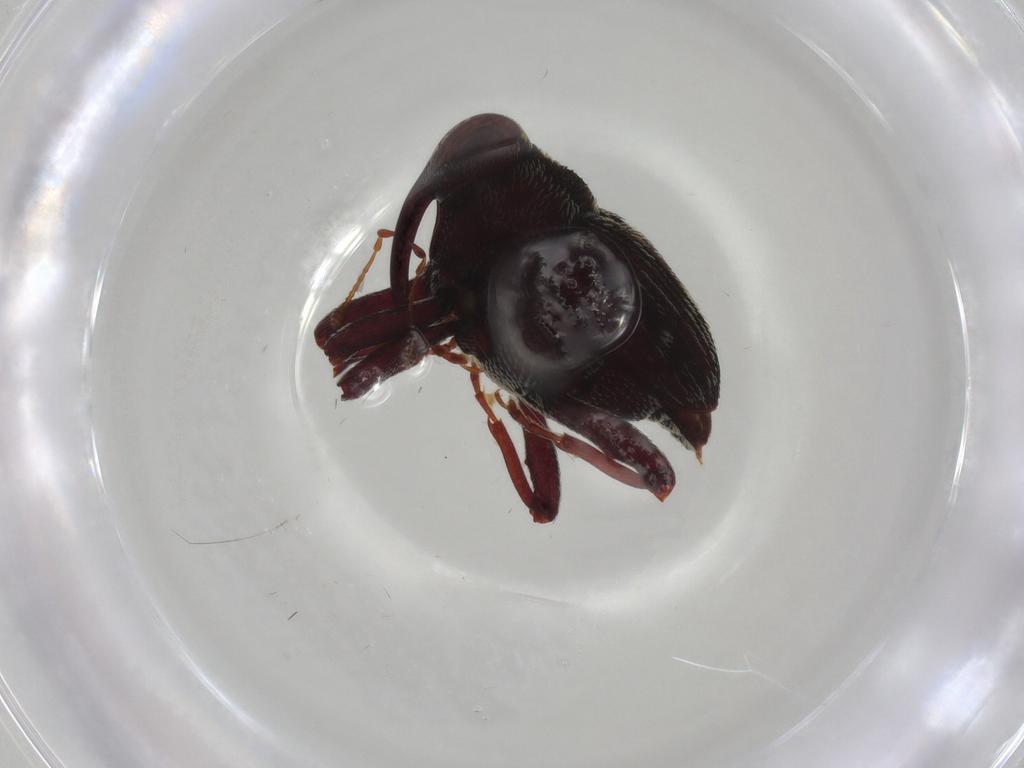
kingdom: Animalia
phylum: Arthropoda
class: Insecta
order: Coleoptera
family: Curculionidae
